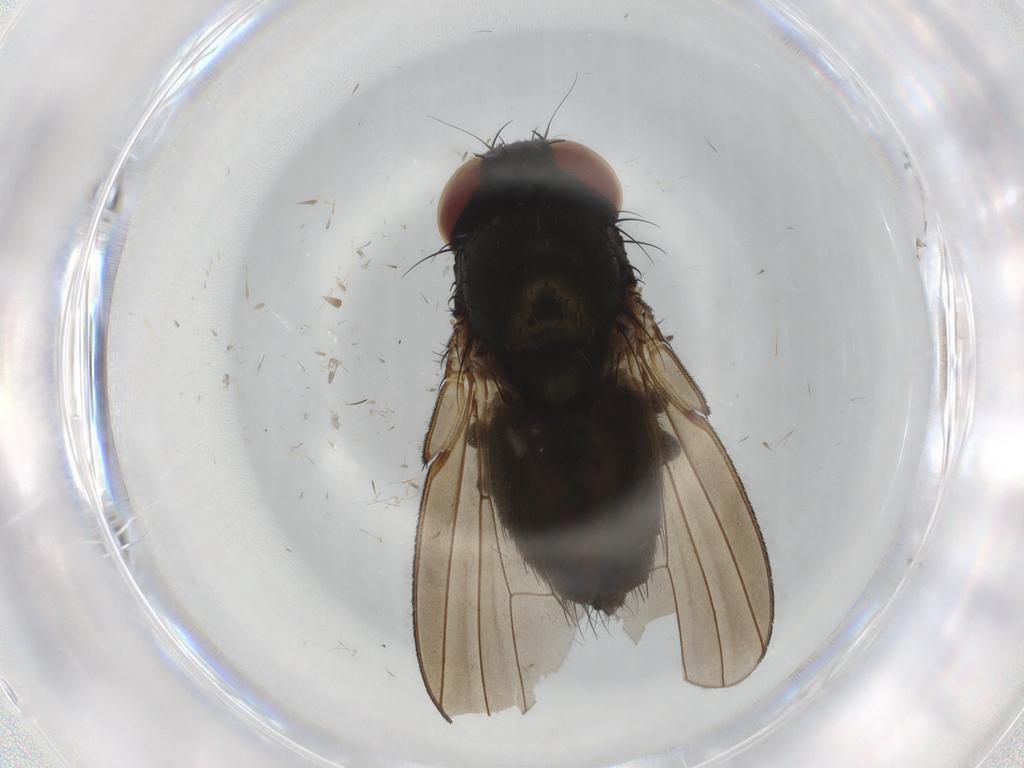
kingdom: Animalia
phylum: Arthropoda
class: Insecta
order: Diptera
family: Milichiidae
